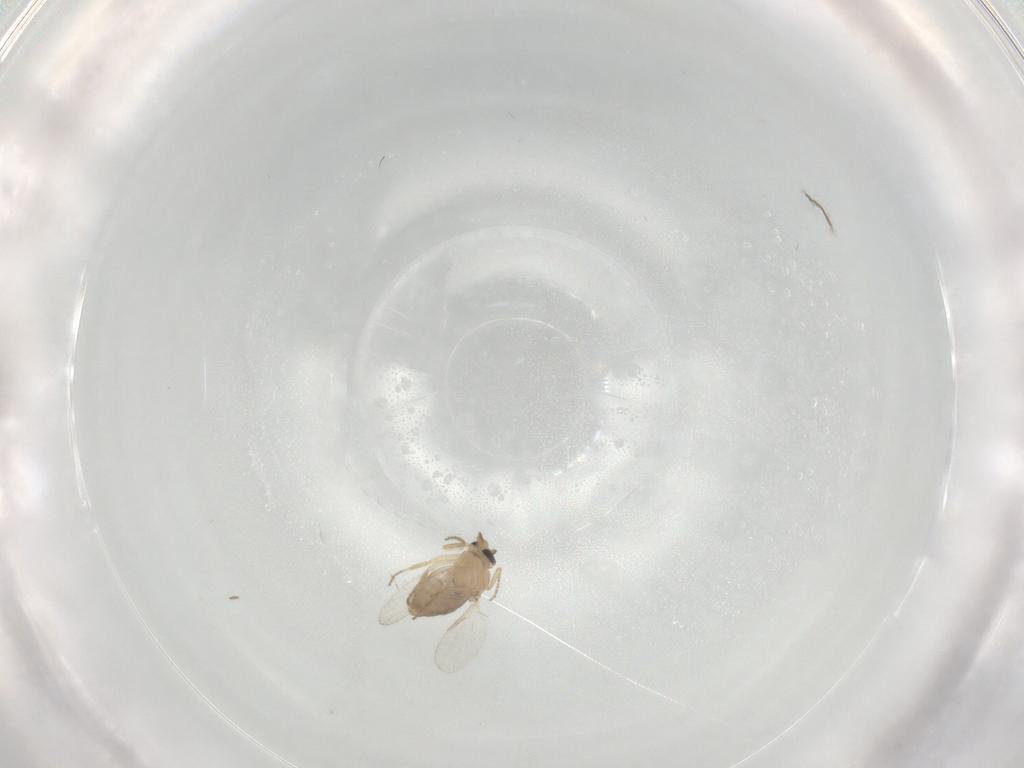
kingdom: Animalia
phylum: Arthropoda
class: Insecta
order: Diptera
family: Ceratopogonidae
